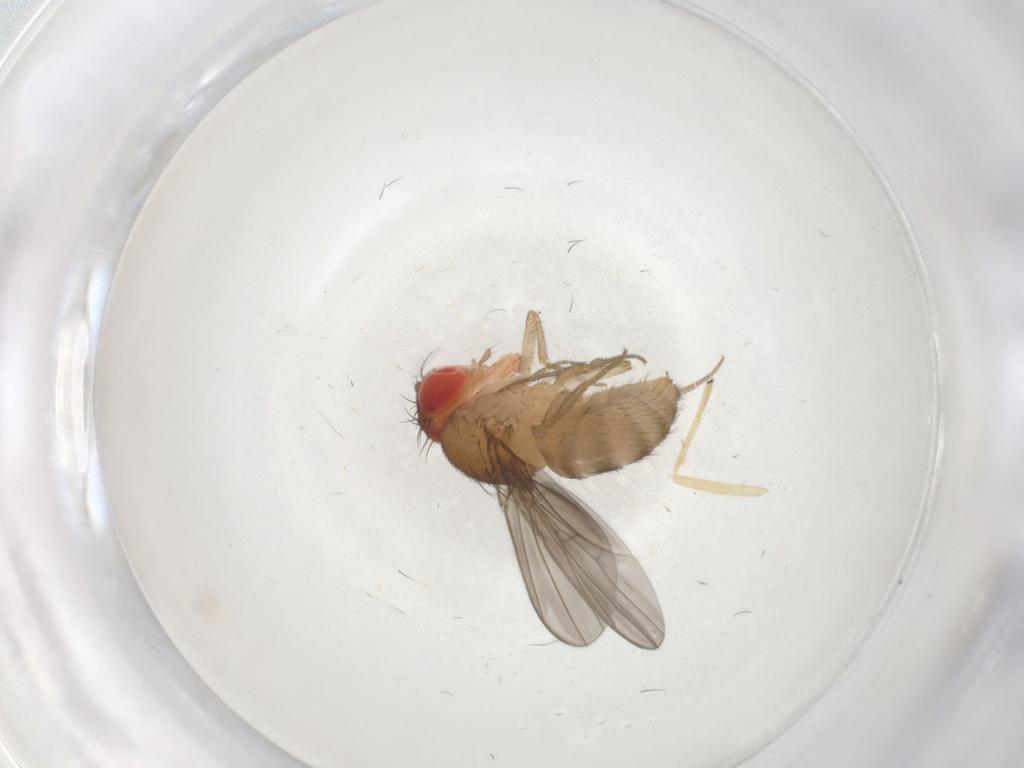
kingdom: Animalia
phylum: Arthropoda
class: Insecta
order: Diptera
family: Drosophilidae
